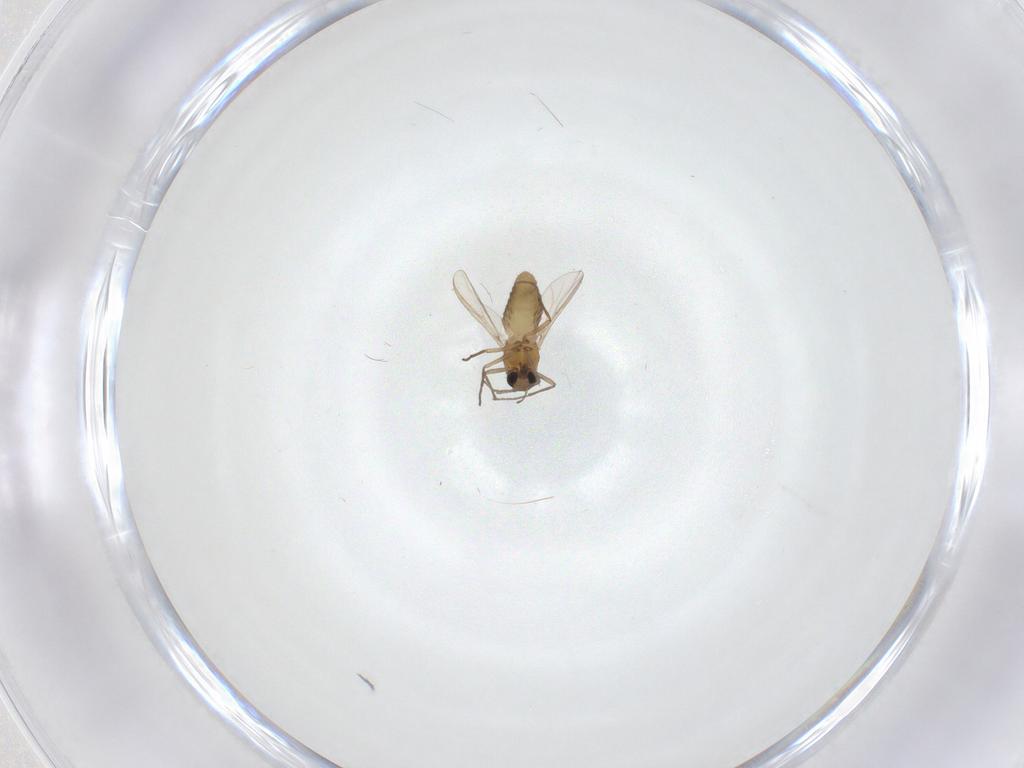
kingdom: Animalia
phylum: Arthropoda
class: Insecta
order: Diptera
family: Chironomidae
